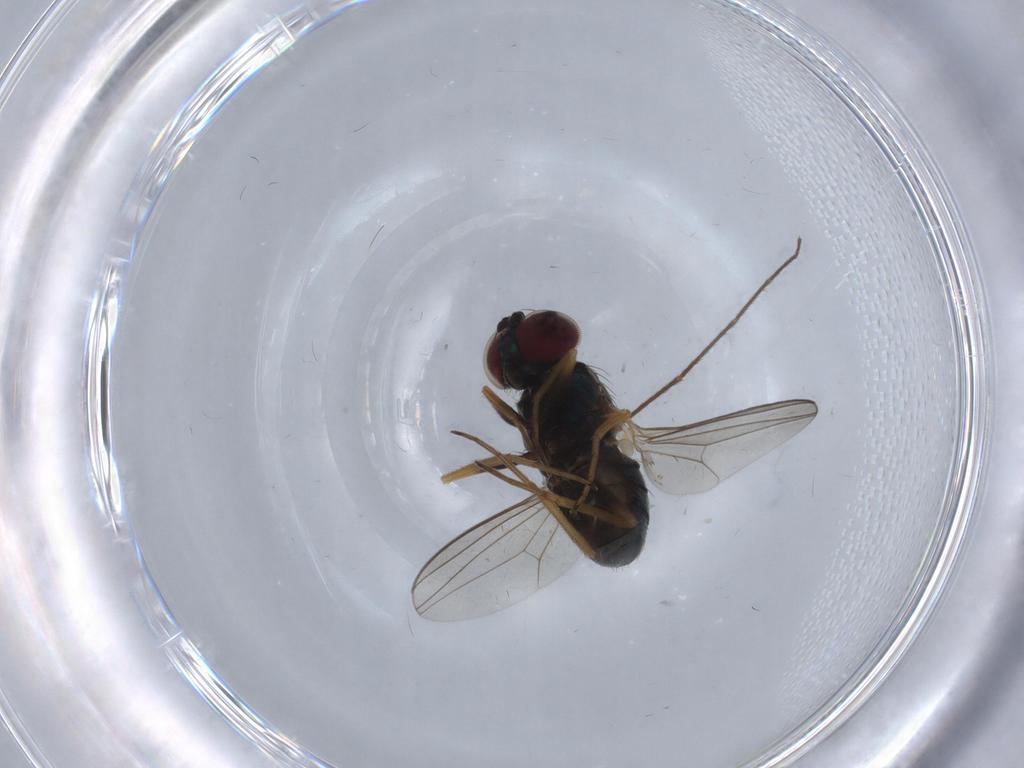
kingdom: Animalia
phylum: Arthropoda
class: Insecta
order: Diptera
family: Dolichopodidae
